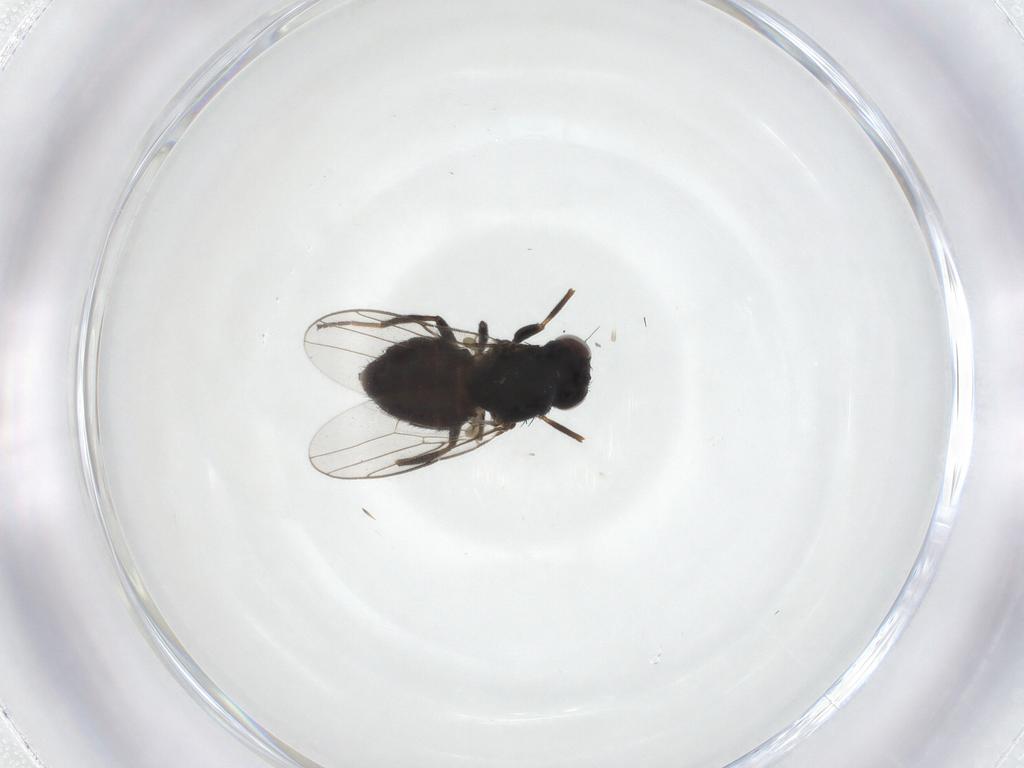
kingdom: Animalia
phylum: Arthropoda
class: Insecta
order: Diptera
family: Chloropidae
